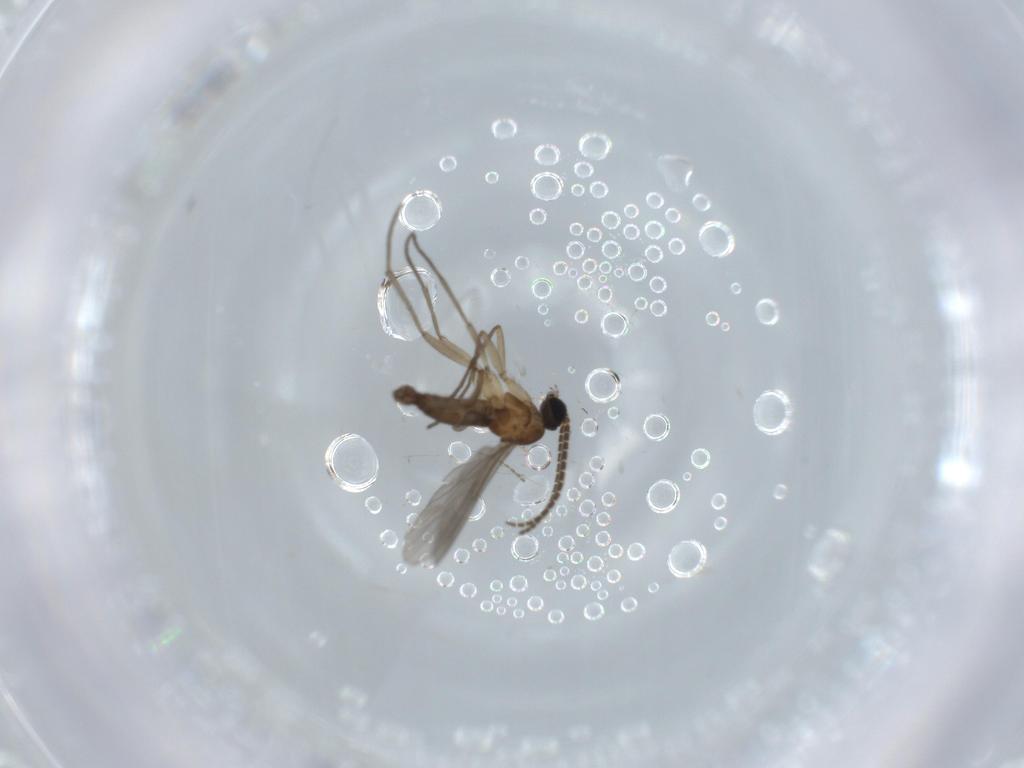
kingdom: Animalia
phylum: Arthropoda
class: Insecta
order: Diptera
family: Sciaridae
